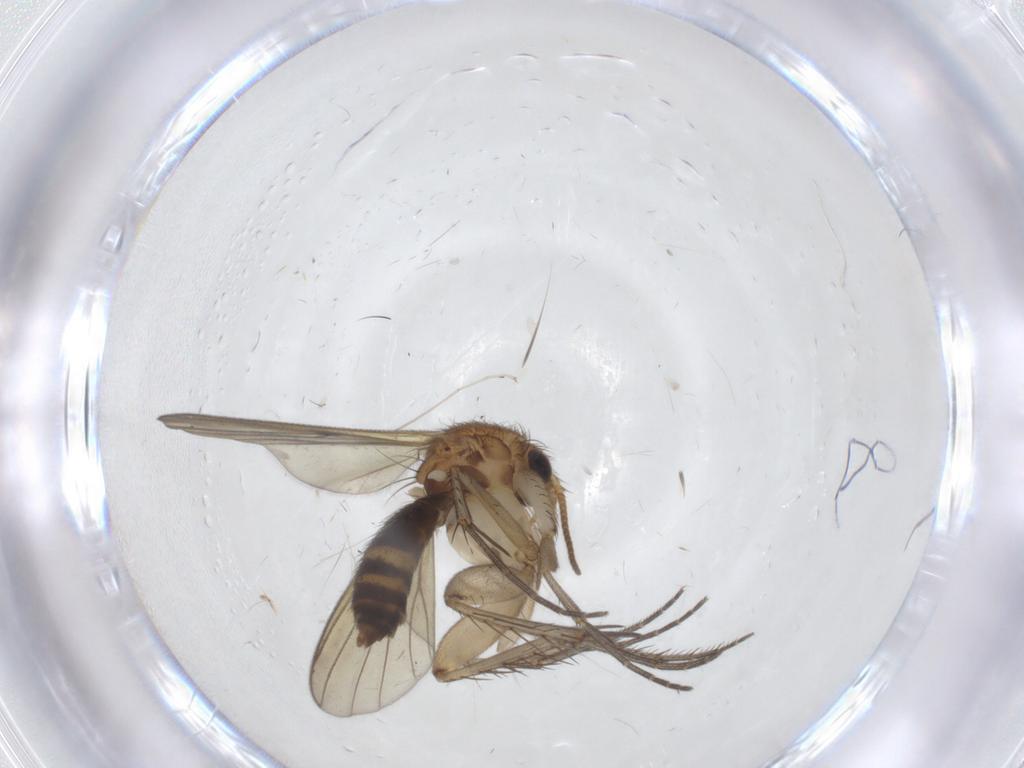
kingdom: Animalia
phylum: Arthropoda
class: Insecta
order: Diptera
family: Mycetophilidae
